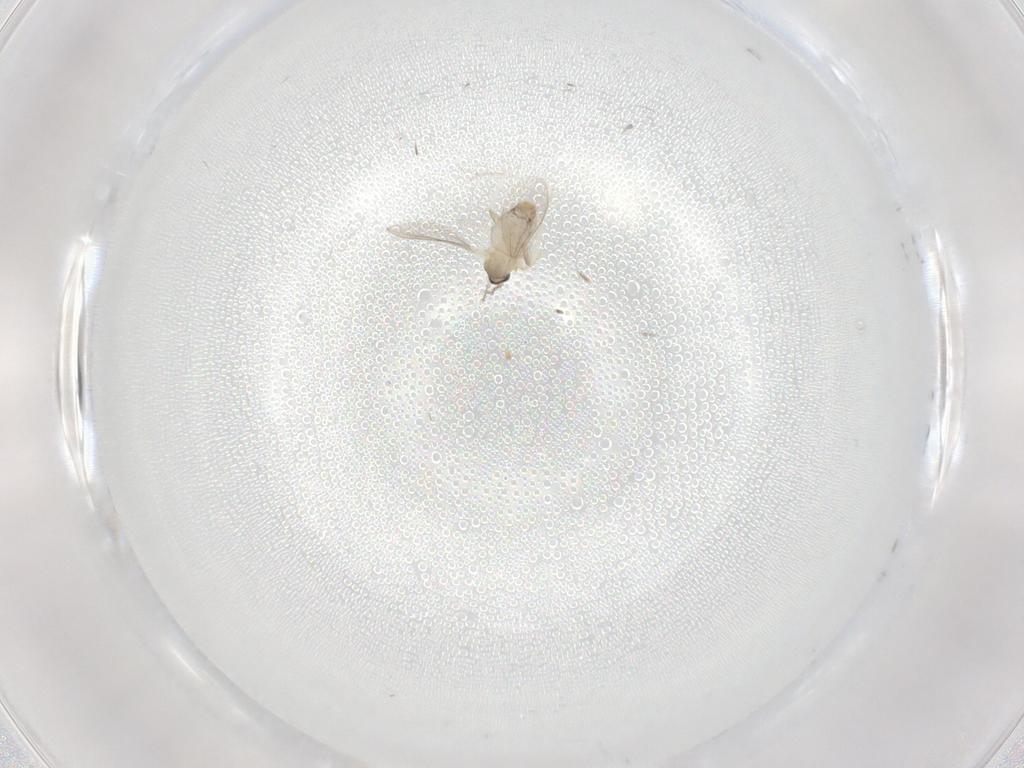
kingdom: Animalia
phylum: Arthropoda
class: Insecta
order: Diptera
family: Cecidomyiidae
